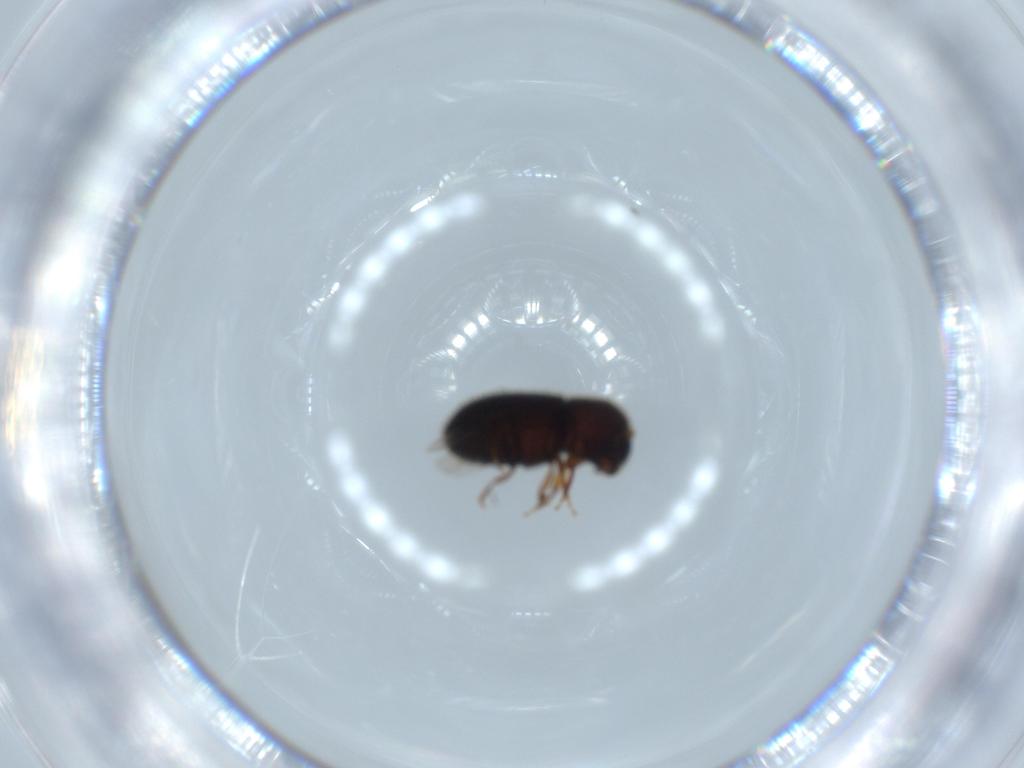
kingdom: Animalia
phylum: Arthropoda
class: Insecta
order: Coleoptera
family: Curculionidae
